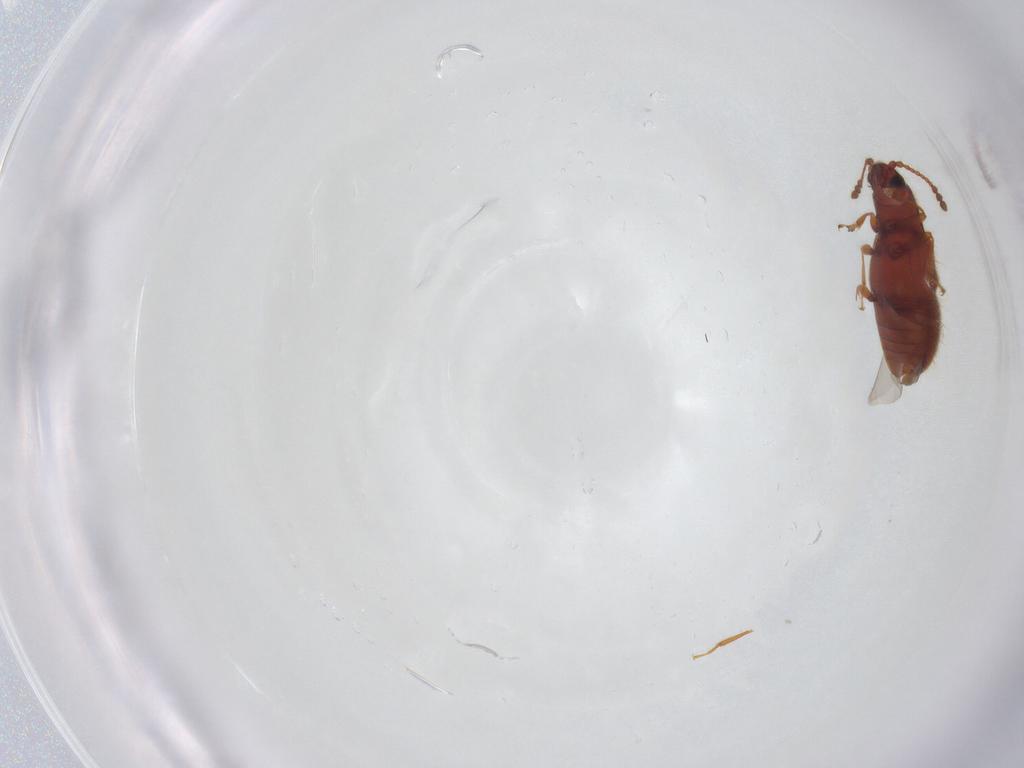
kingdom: Animalia
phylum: Arthropoda
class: Insecta
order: Coleoptera
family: Cryptophagidae
